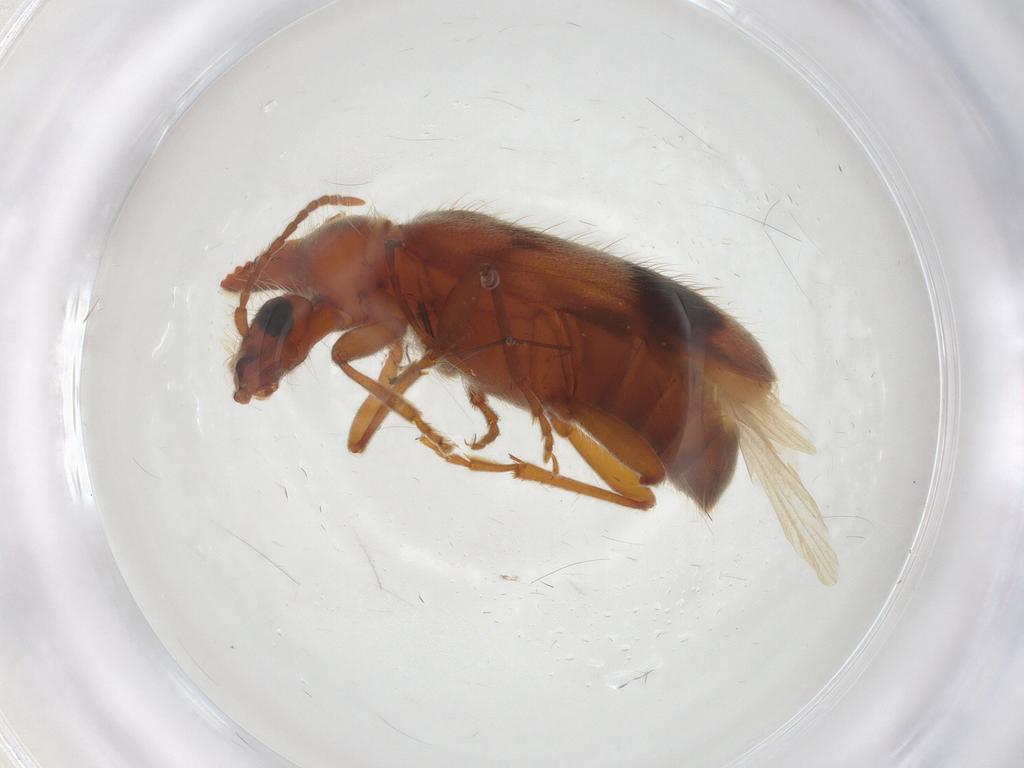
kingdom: Animalia
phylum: Arthropoda
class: Insecta
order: Coleoptera
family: Anthicidae
